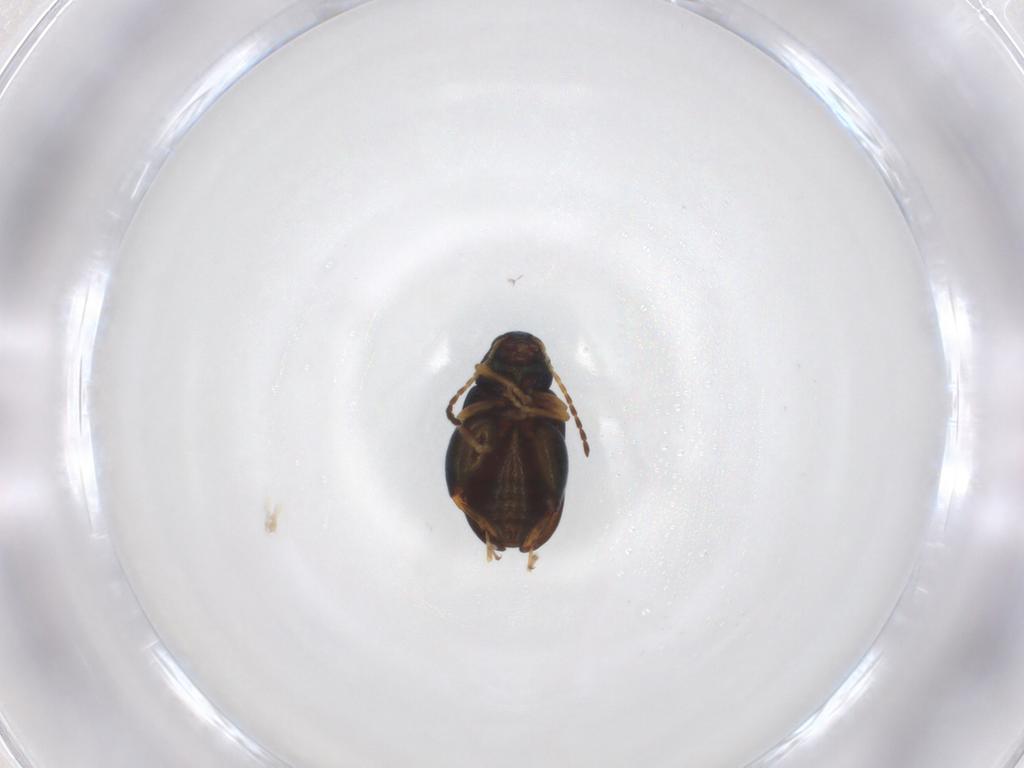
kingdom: Animalia
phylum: Arthropoda
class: Insecta
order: Coleoptera
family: Chrysomelidae
